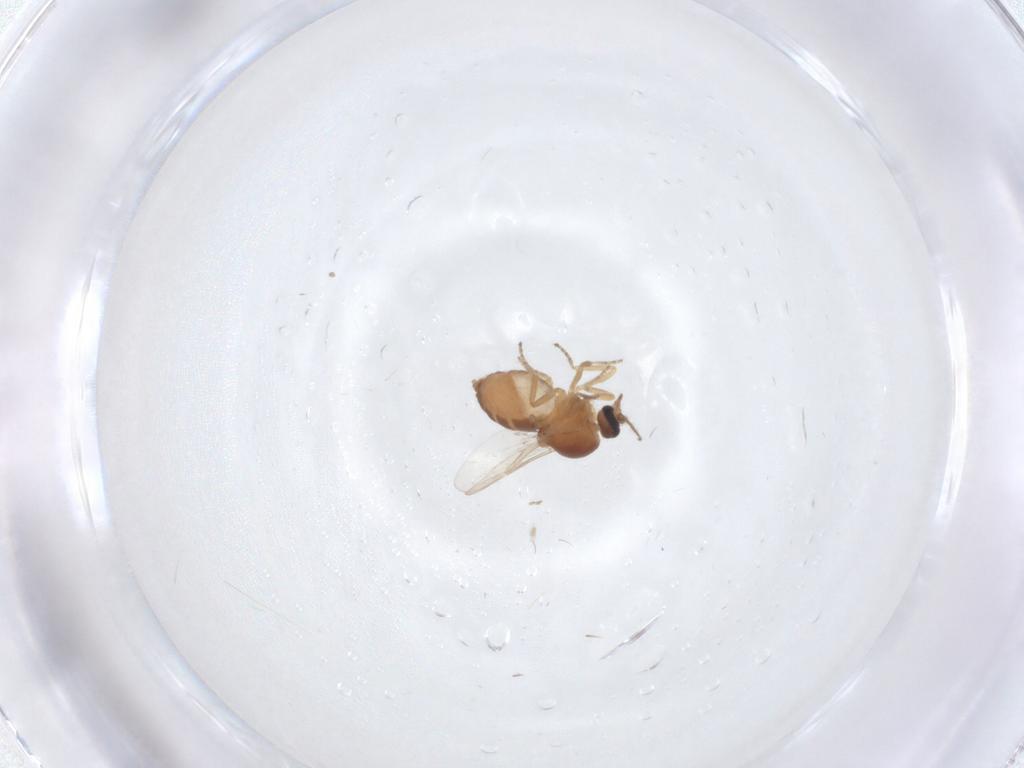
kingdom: Animalia
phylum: Arthropoda
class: Insecta
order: Diptera
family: Ceratopogonidae
